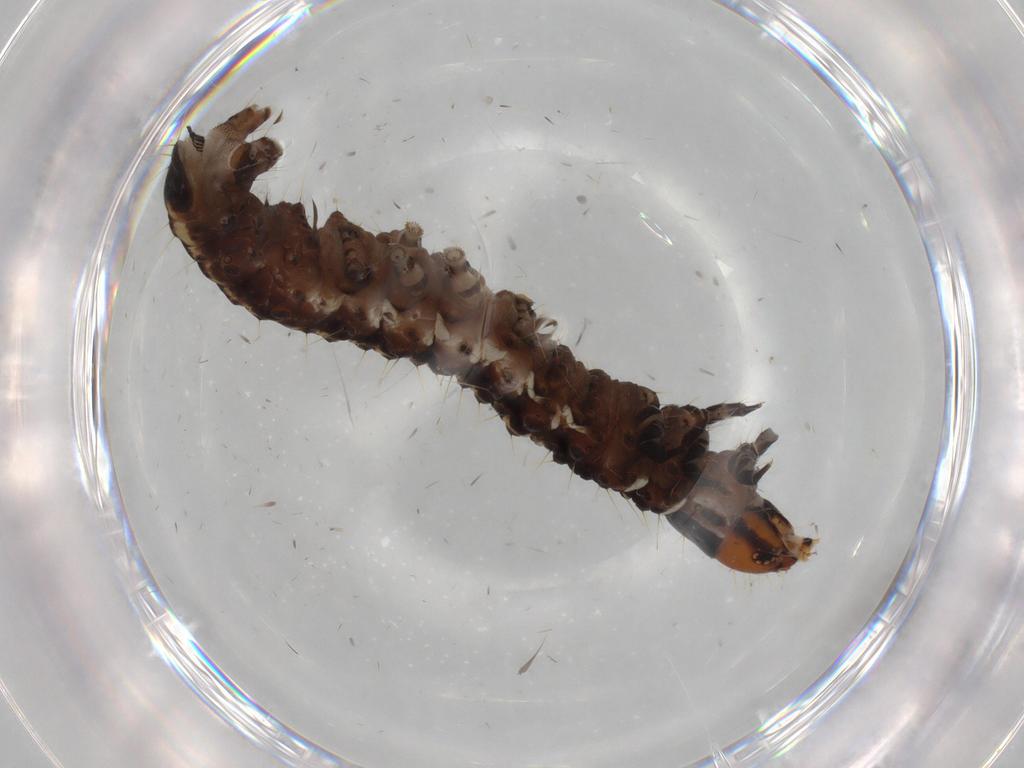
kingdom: Animalia
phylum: Arthropoda
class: Insecta
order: Lepidoptera
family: Gelechiidae
